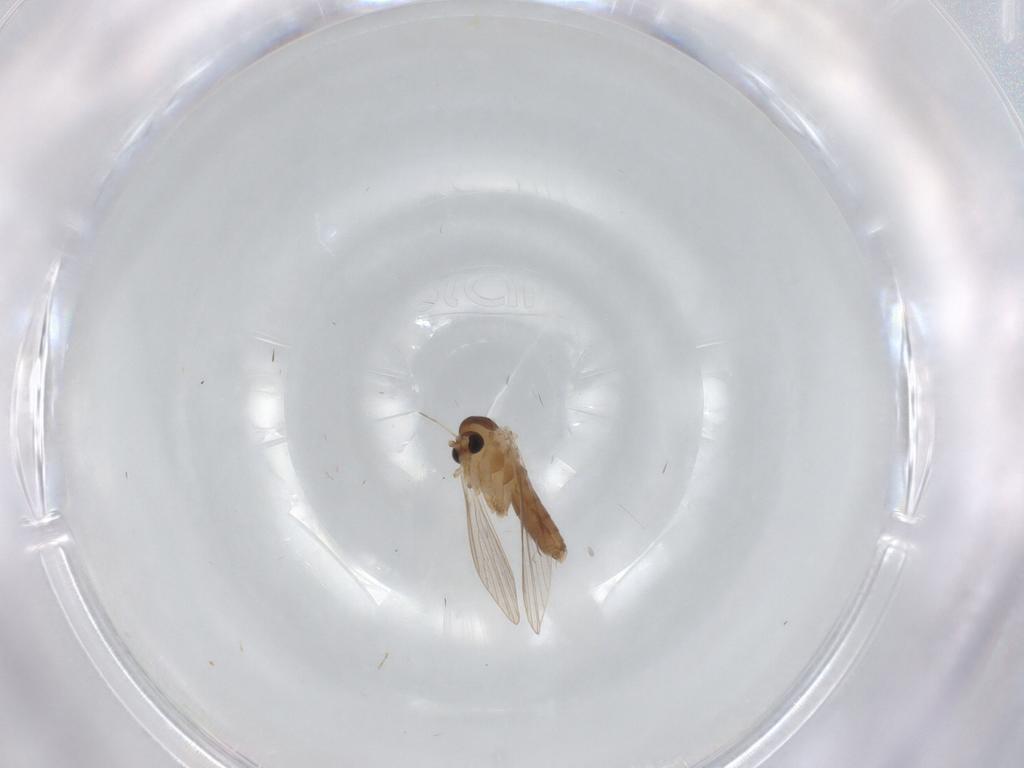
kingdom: Animalia
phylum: Arthropoda
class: Insecta
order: Diptera
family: Psychodidae
